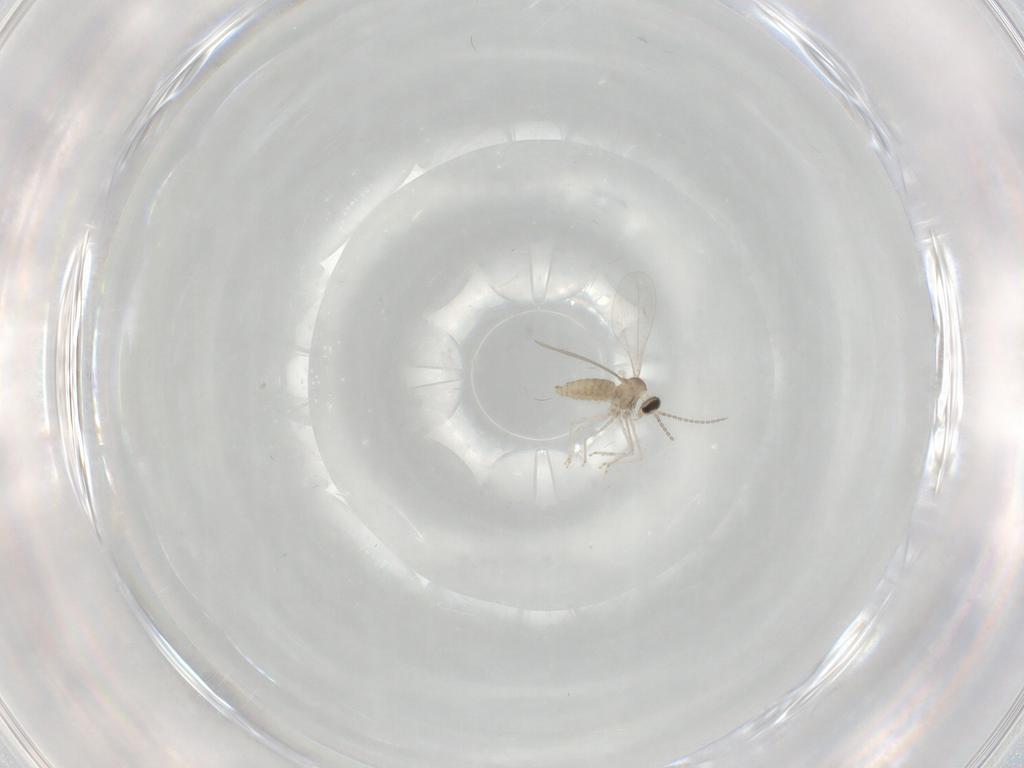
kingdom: Animalia
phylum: Arthropoda
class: Insecta
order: Diptera
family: Cecidomyiidae
